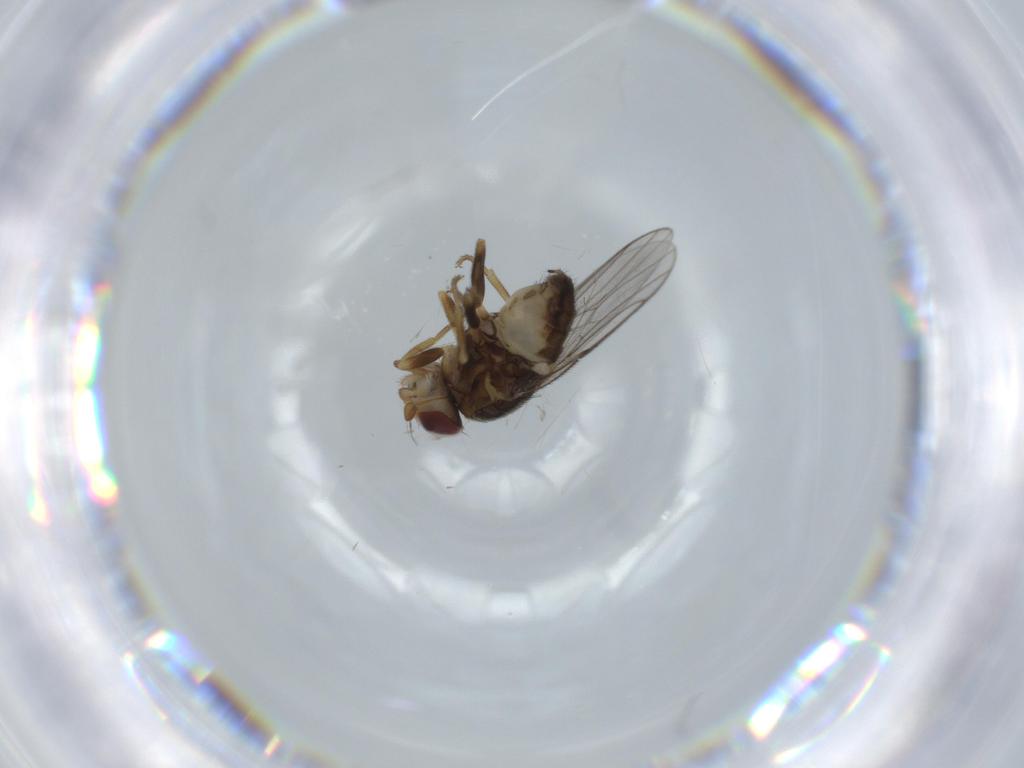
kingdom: Animalia
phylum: Arthropoda
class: Insecta
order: Diptera
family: Chloropidae
